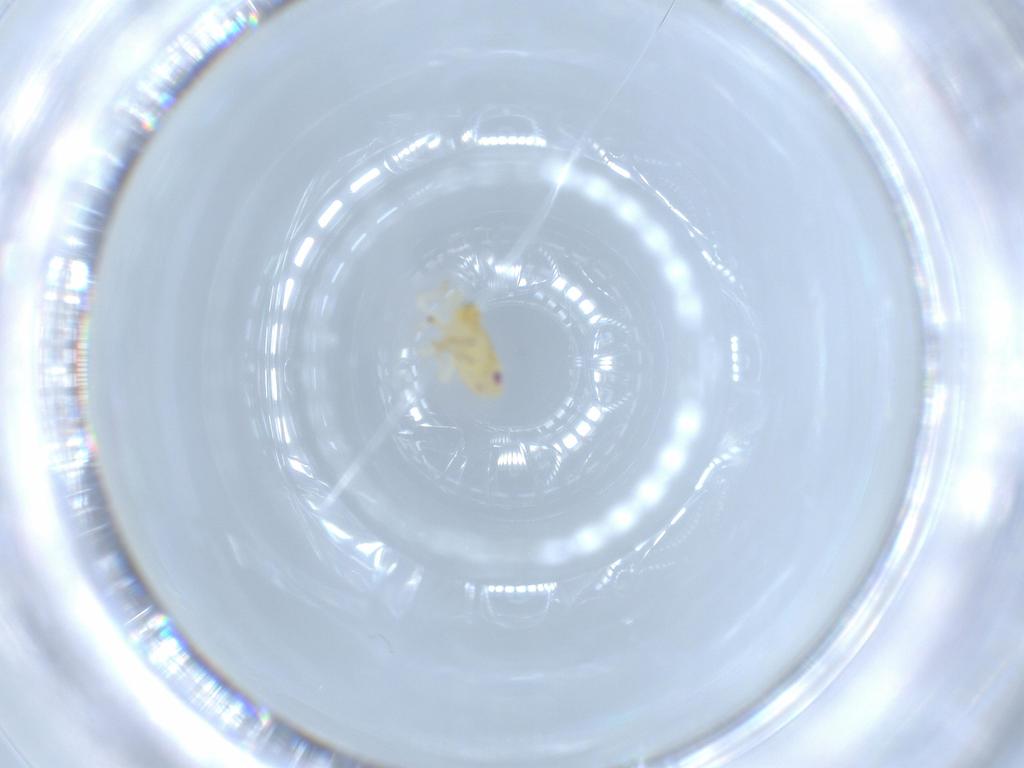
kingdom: Animalia
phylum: Arthropoda
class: Insecta
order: Hemiptera
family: Tropiduchidae
